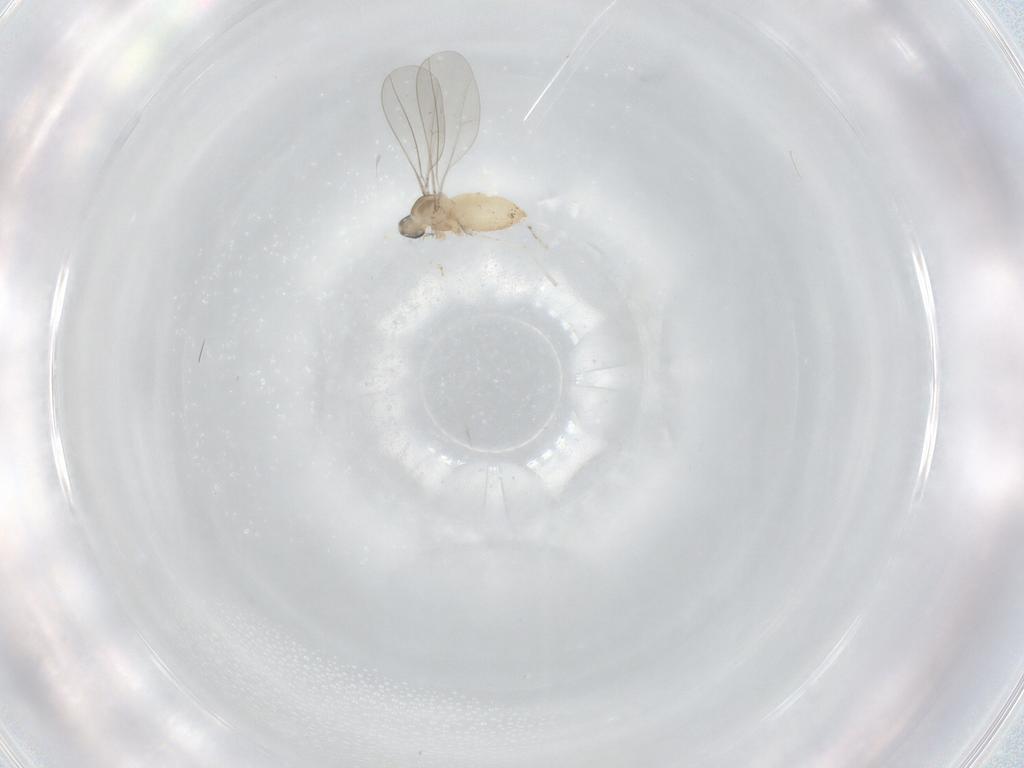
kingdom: Animalia
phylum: Arthropoda
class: Insecta
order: Diptera
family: Cecidomyiidae
